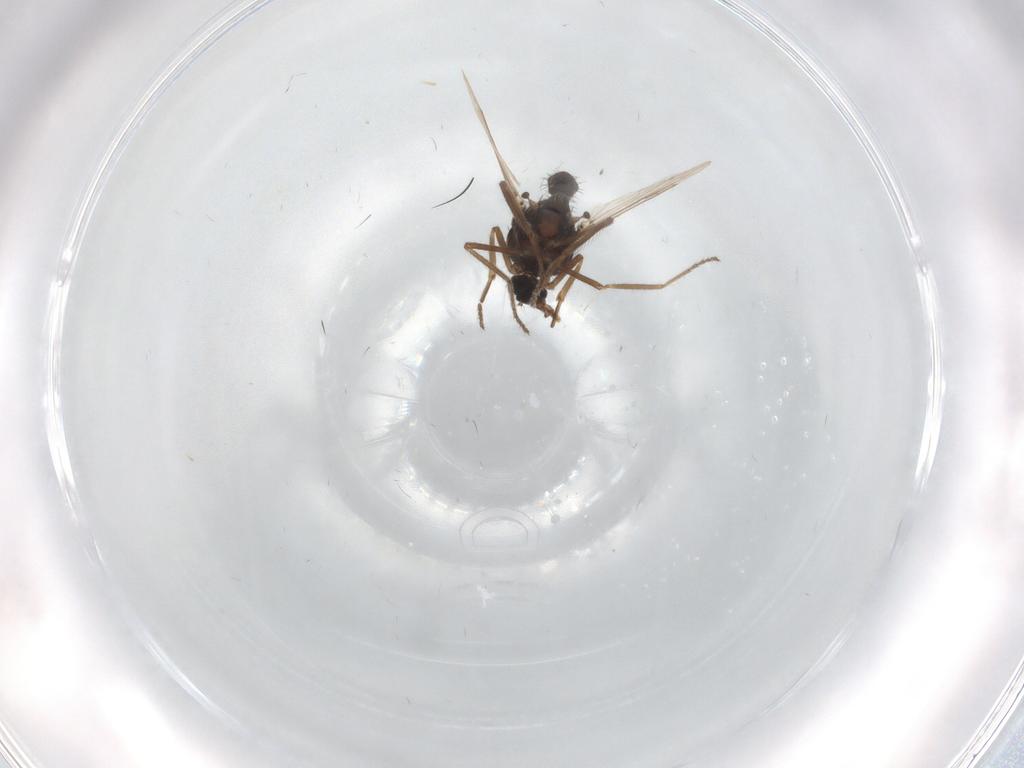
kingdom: Animalia
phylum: Arthropoda
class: Insecta
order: Diptera
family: Ceratopogonidae
